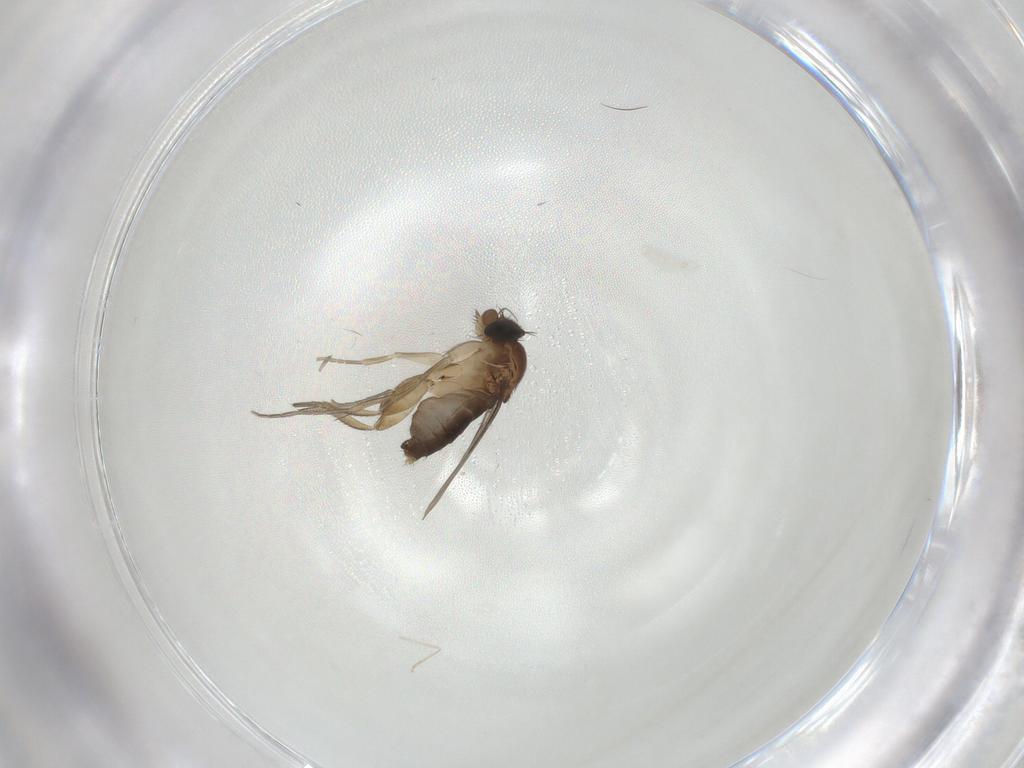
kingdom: Animalia
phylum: Arthropoda
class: Insecta
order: Diptera
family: Phoridae
